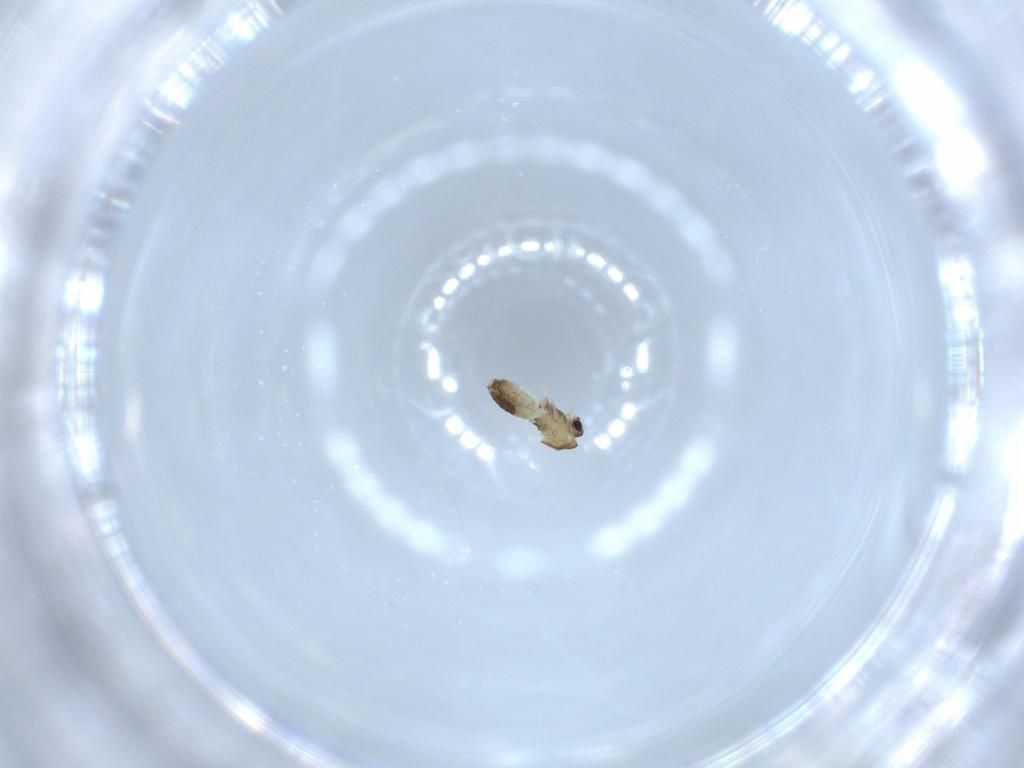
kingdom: Animalia
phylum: Arthropoda
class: Insecta
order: Diptera
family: Chironomidae
